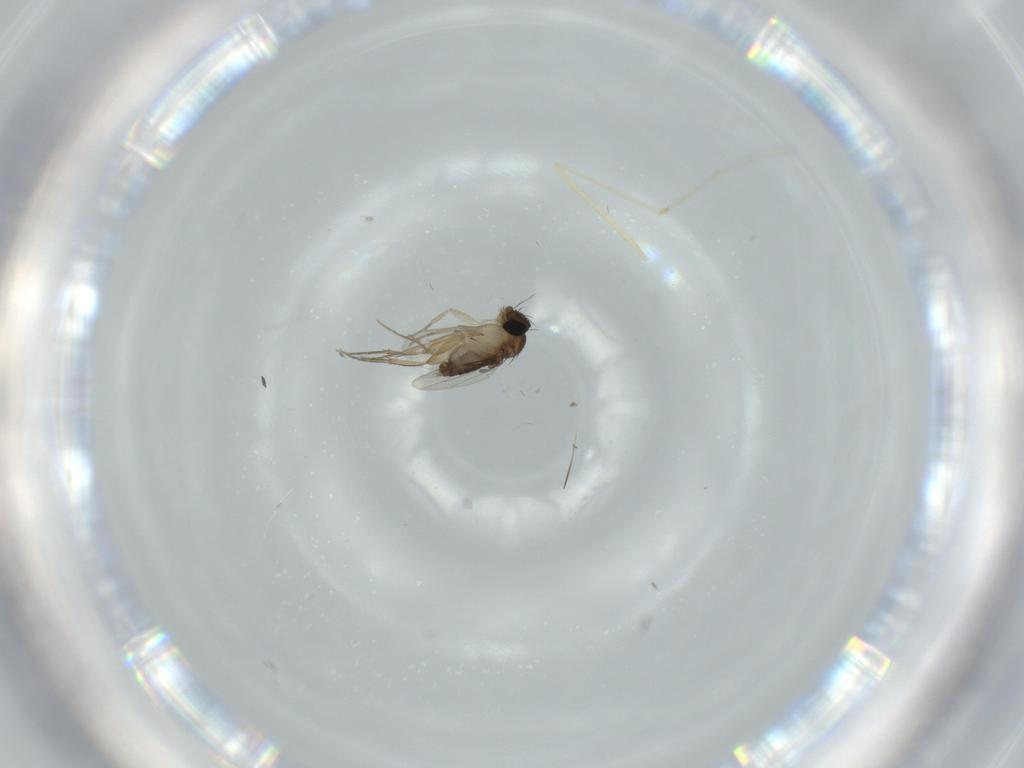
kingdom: Animalia
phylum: Arthropoda
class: Insecta
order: Diptera
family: Phoridae
